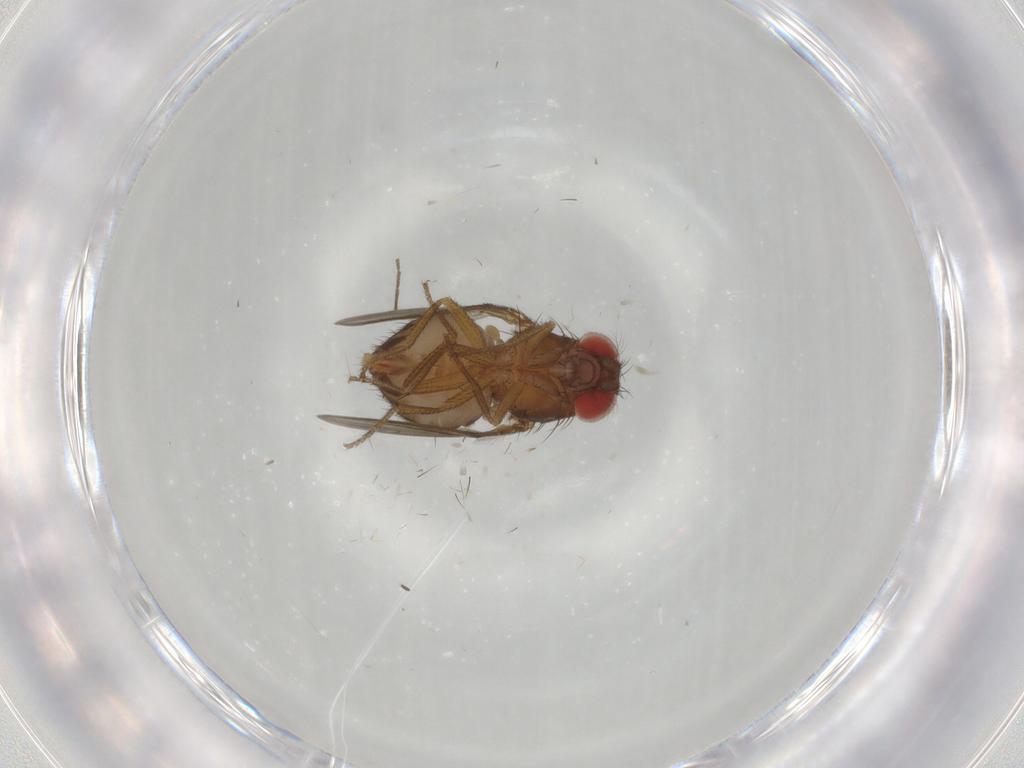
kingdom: Animalia
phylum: Arthropoda
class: Insecta
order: Diptera
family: Drosophilidae
